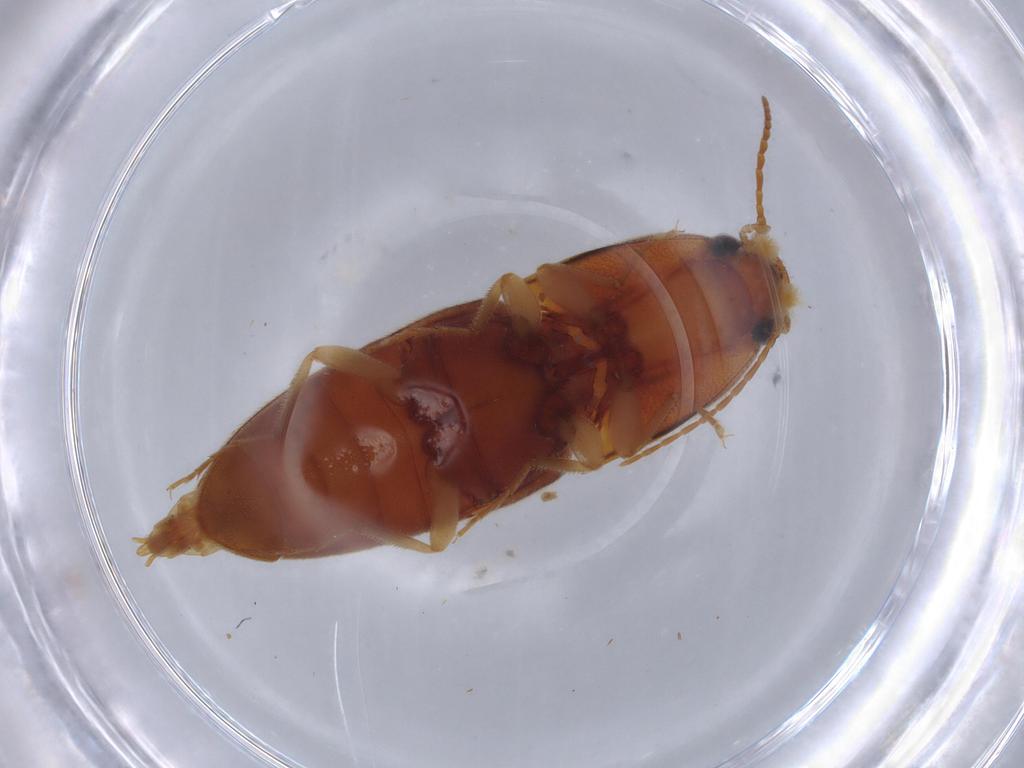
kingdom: Animalia
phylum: Arthropoda
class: Insecta
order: Coleoptera
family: Elateridae
